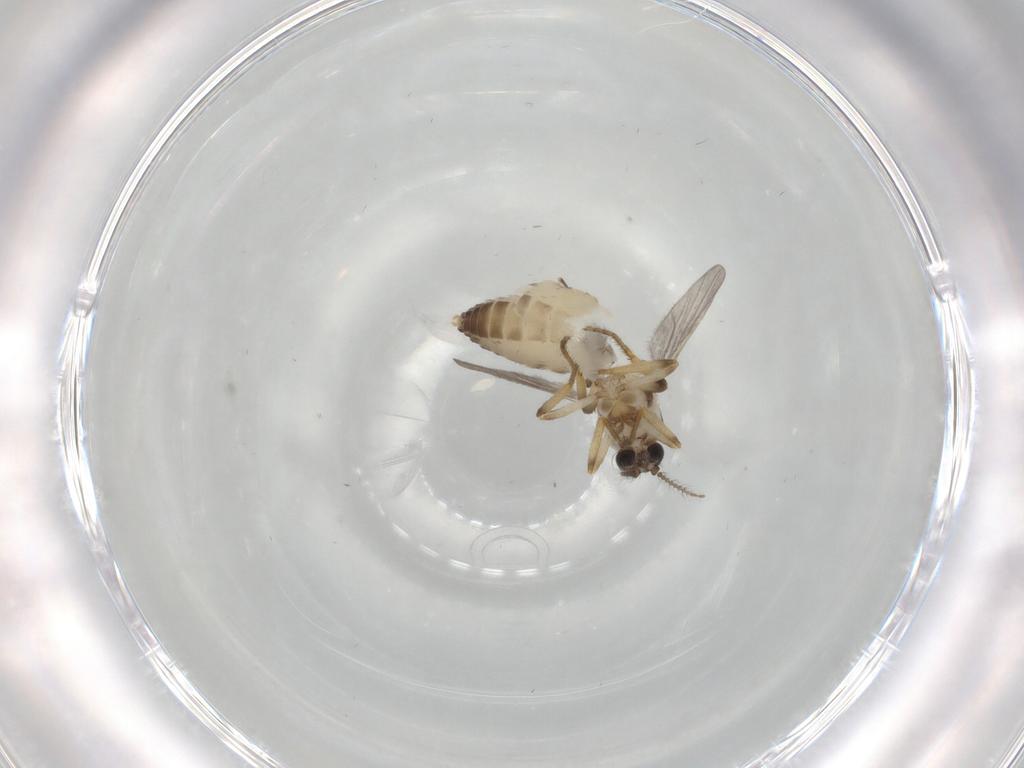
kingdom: Animalia
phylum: Arthropoda
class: Insecta
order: Diptera
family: Ceratopogonidae
